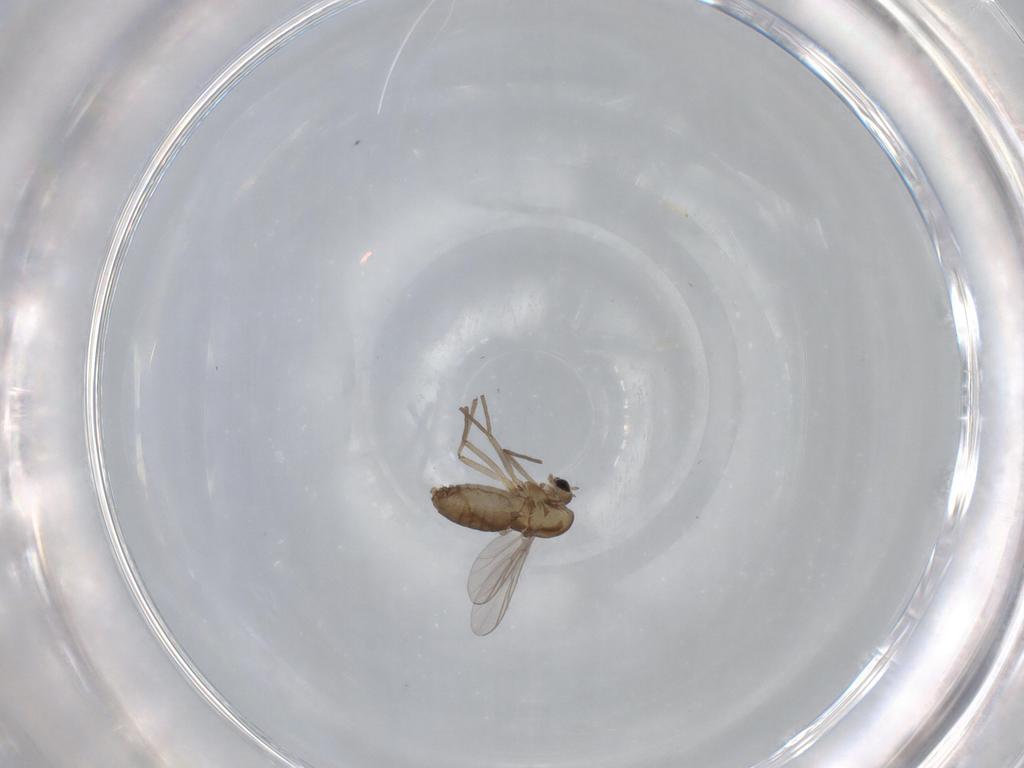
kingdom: Animalia
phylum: Arthropoda
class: Insecta
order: Diptera
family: Chironomidae
